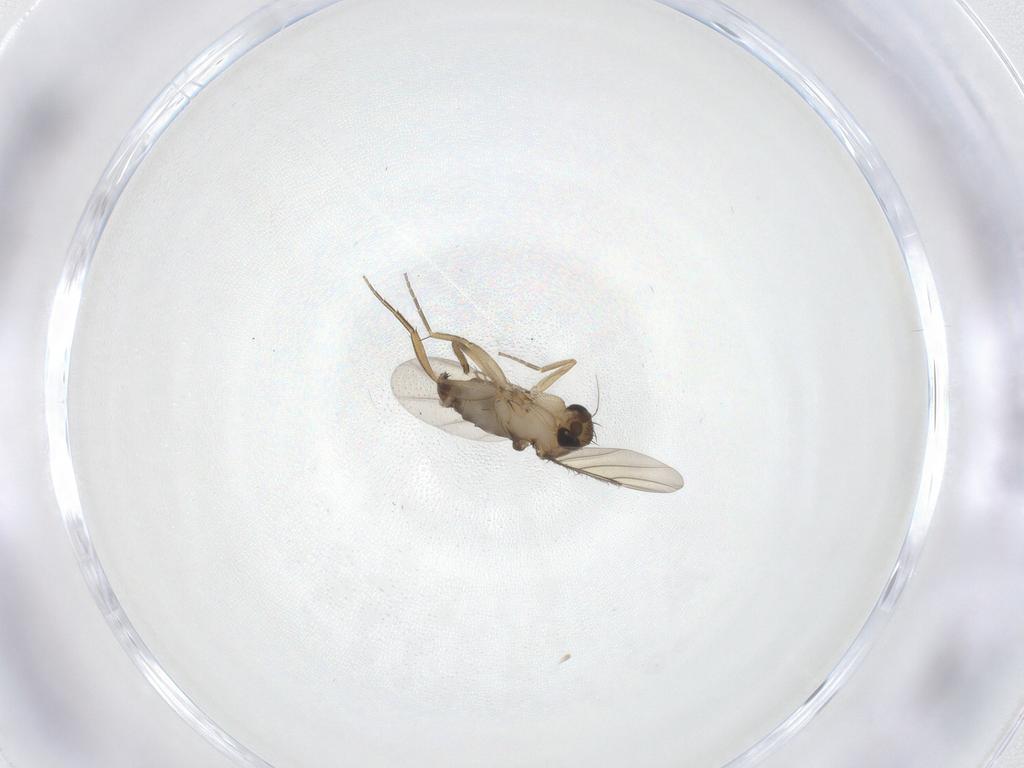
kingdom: Animalia
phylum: Arthropoda
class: Insecta
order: Diptera
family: Phoridae
